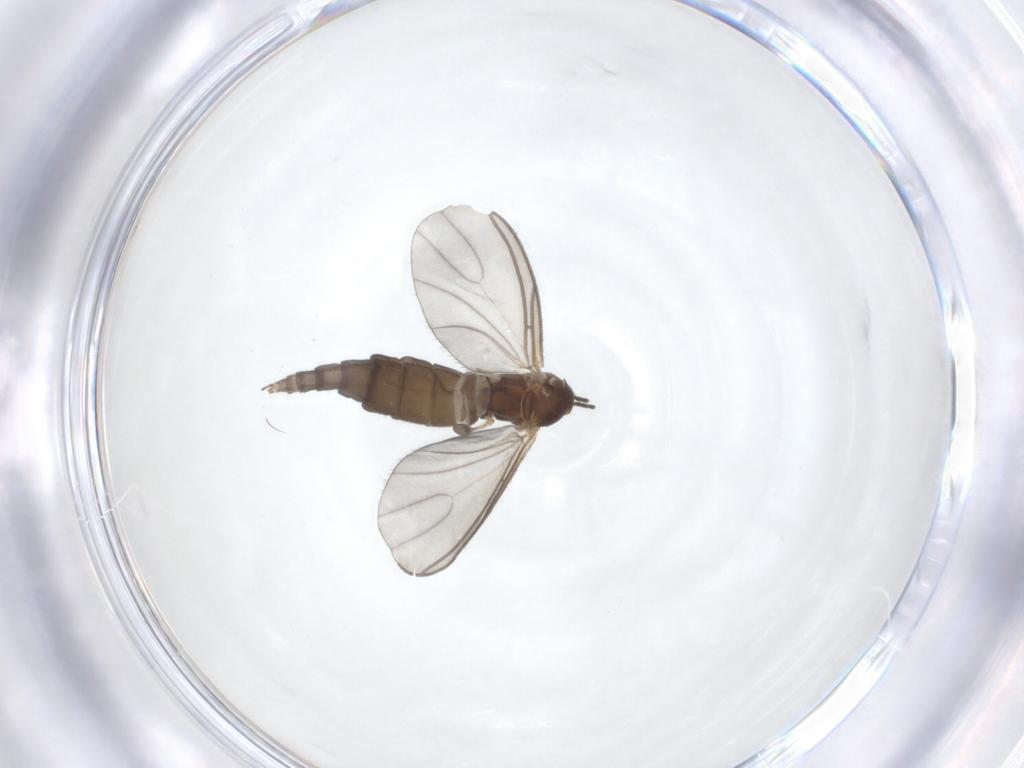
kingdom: Animalia
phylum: Arthropoda
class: Insecta
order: Diptera
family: Sciaridae
